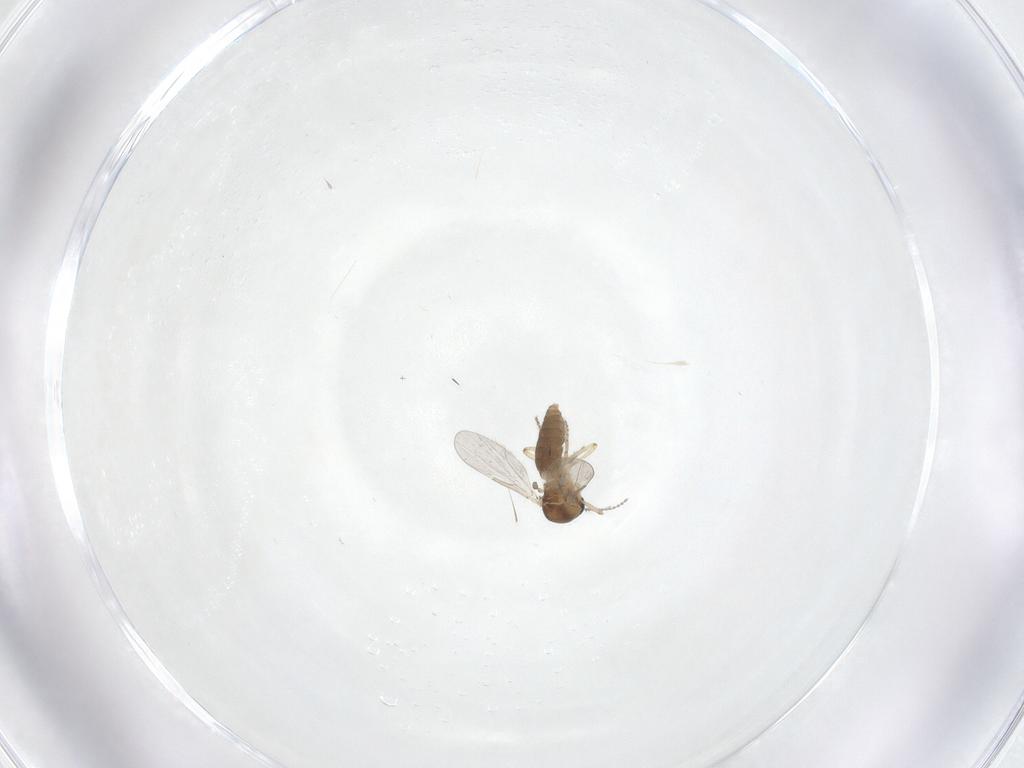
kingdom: Animalia
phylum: Arthropoda
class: Insecta
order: Diptera
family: Ceratopogonidae
